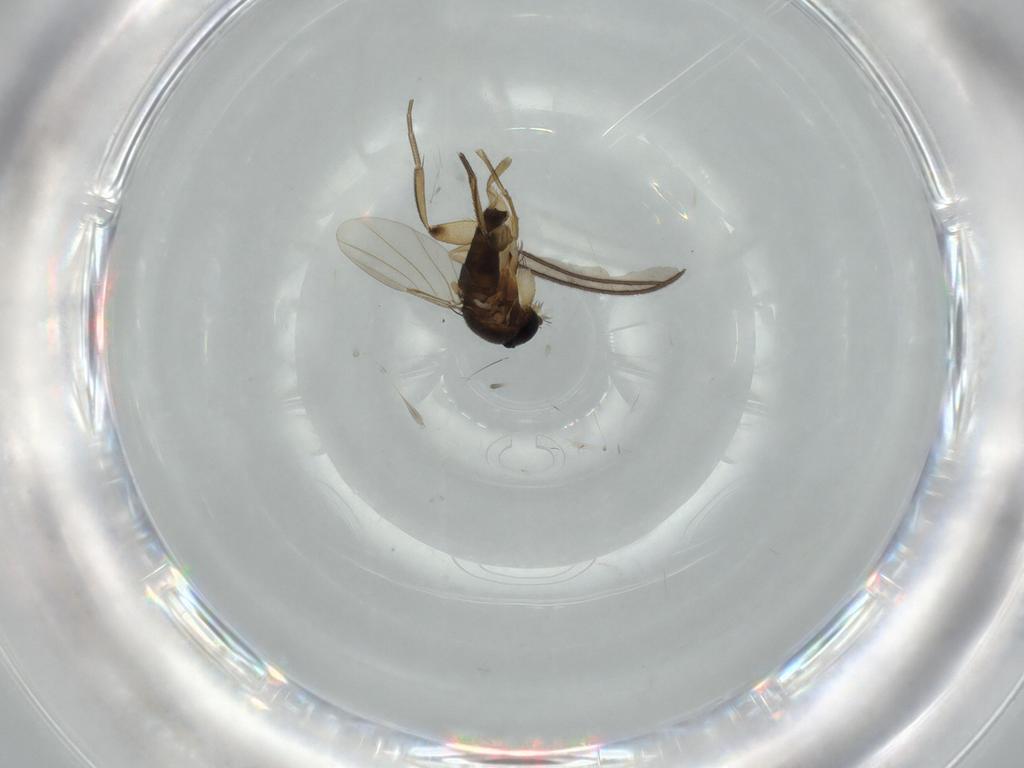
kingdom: Animalia
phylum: Arthropoda
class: Insecta
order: Diptera
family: Sciaridae
